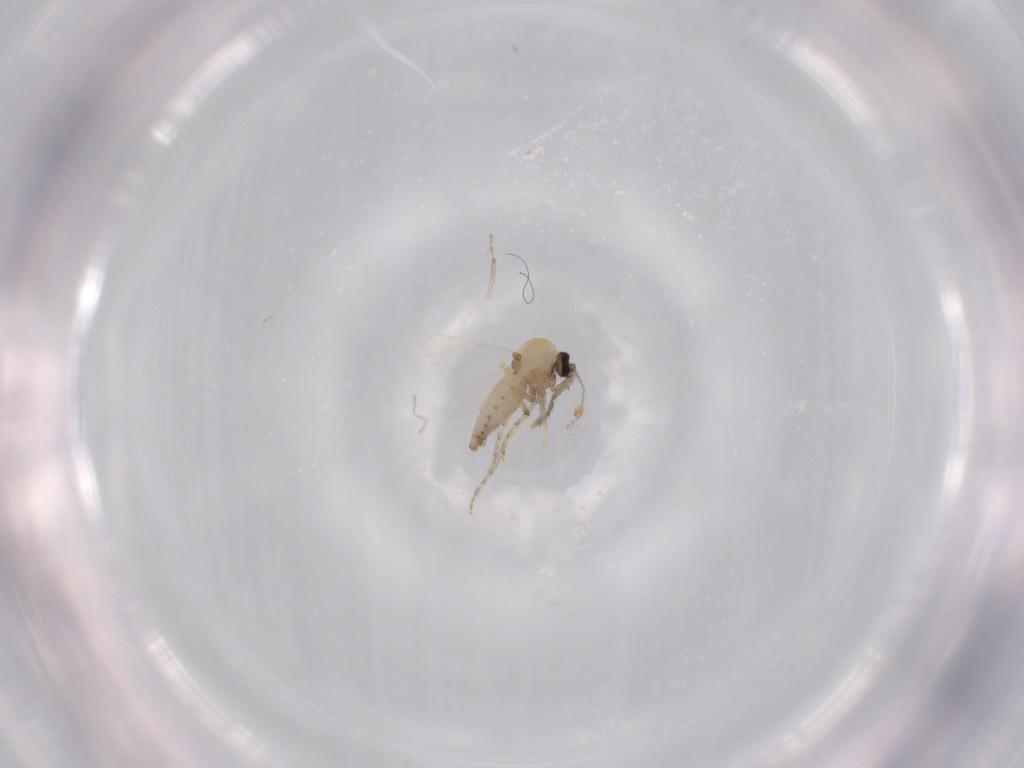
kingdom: Animalia
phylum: Arthropoda
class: Insecta
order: Diptera
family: Ceratopogonidae
